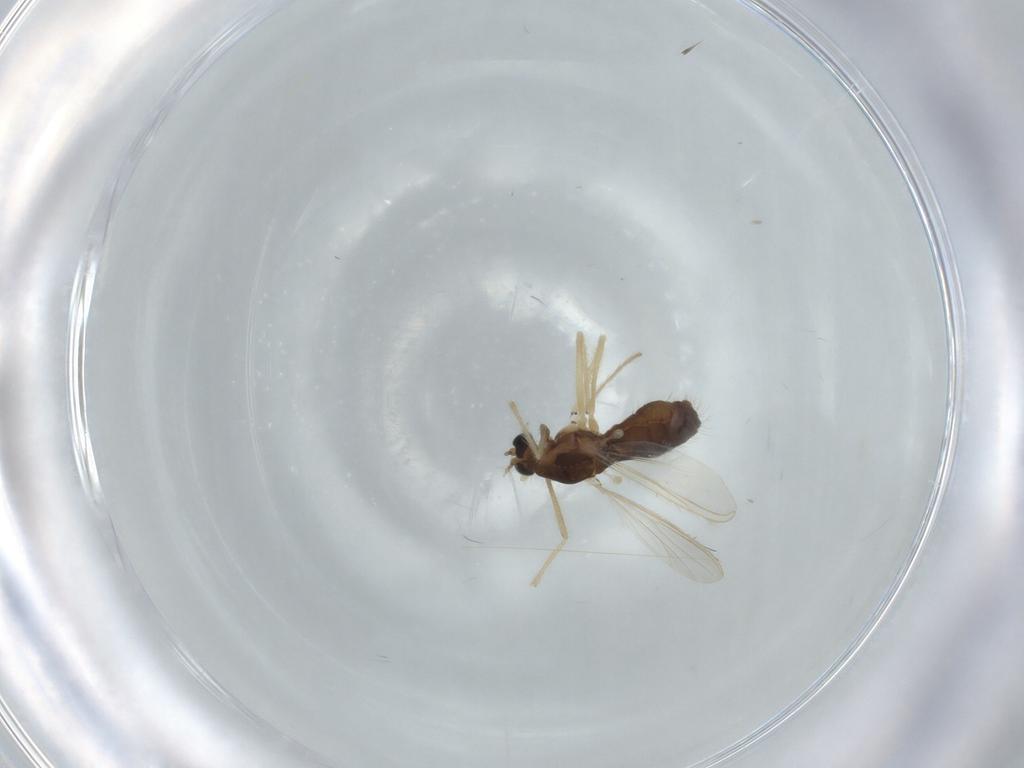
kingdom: Animalia
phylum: Arthropoda
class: Insecta
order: Diptera
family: Chironomidae
